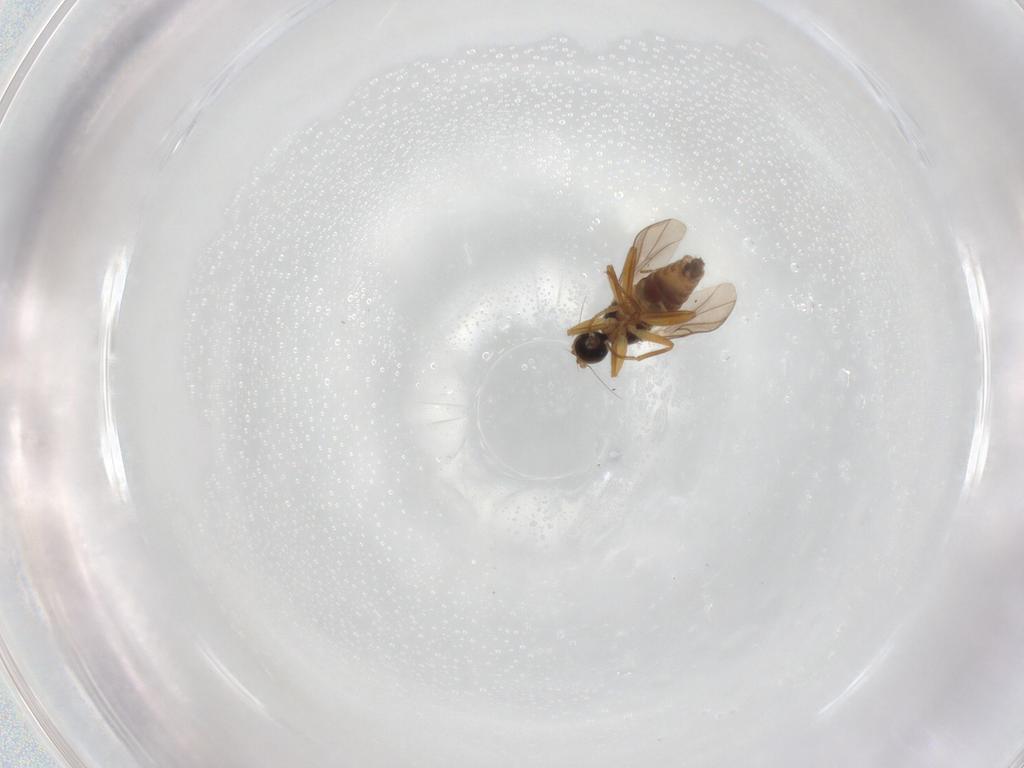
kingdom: Animalia
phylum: Arthropoda
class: Insecta
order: Diptera
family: Hybotidae
